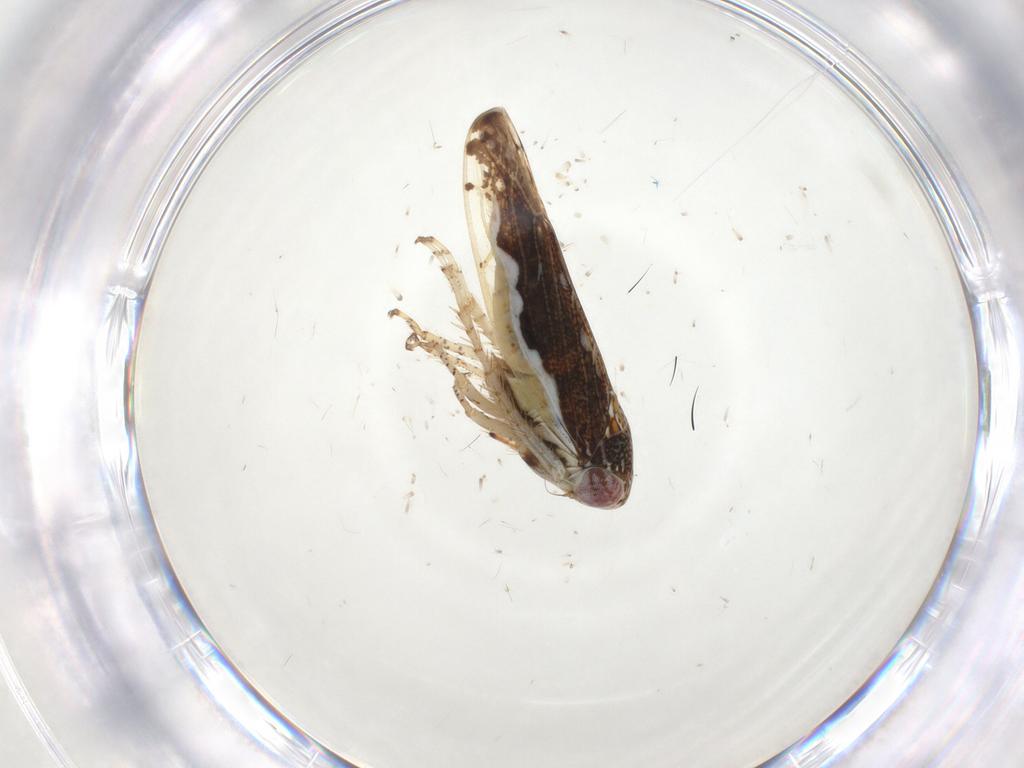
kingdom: Animalia
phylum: Arthropoda
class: Insecta
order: Hemiptera
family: Cicadellidae
